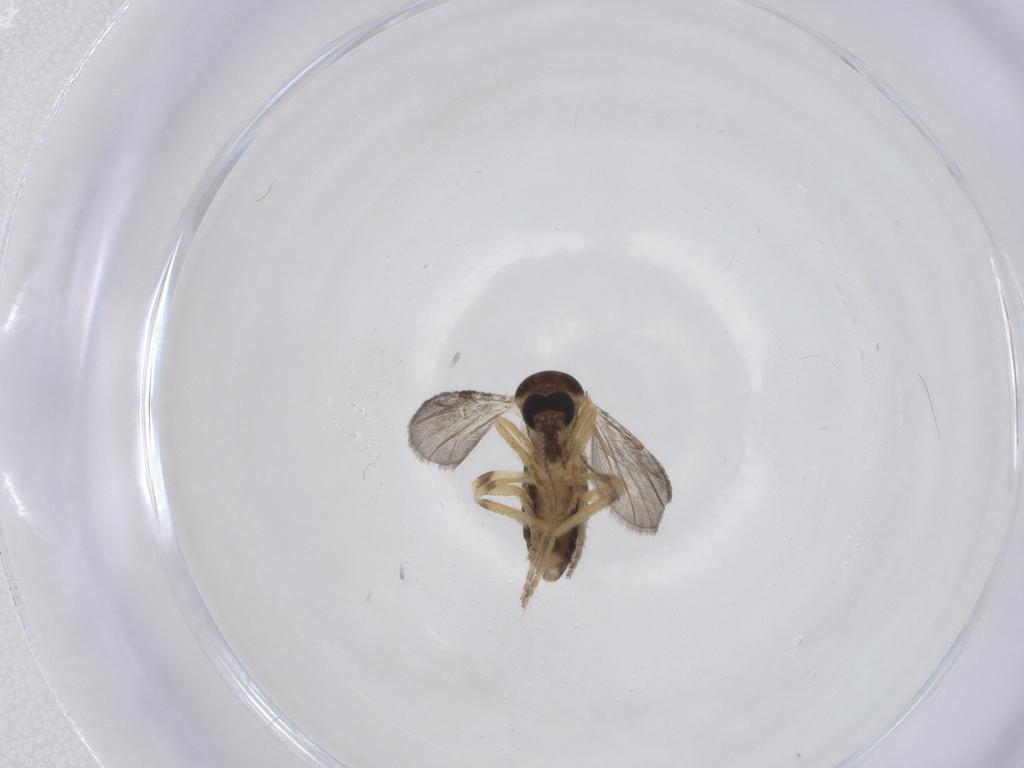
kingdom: Animalia
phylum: Arthropoda
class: Insecta
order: Diptera
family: Ceratopogonidae
